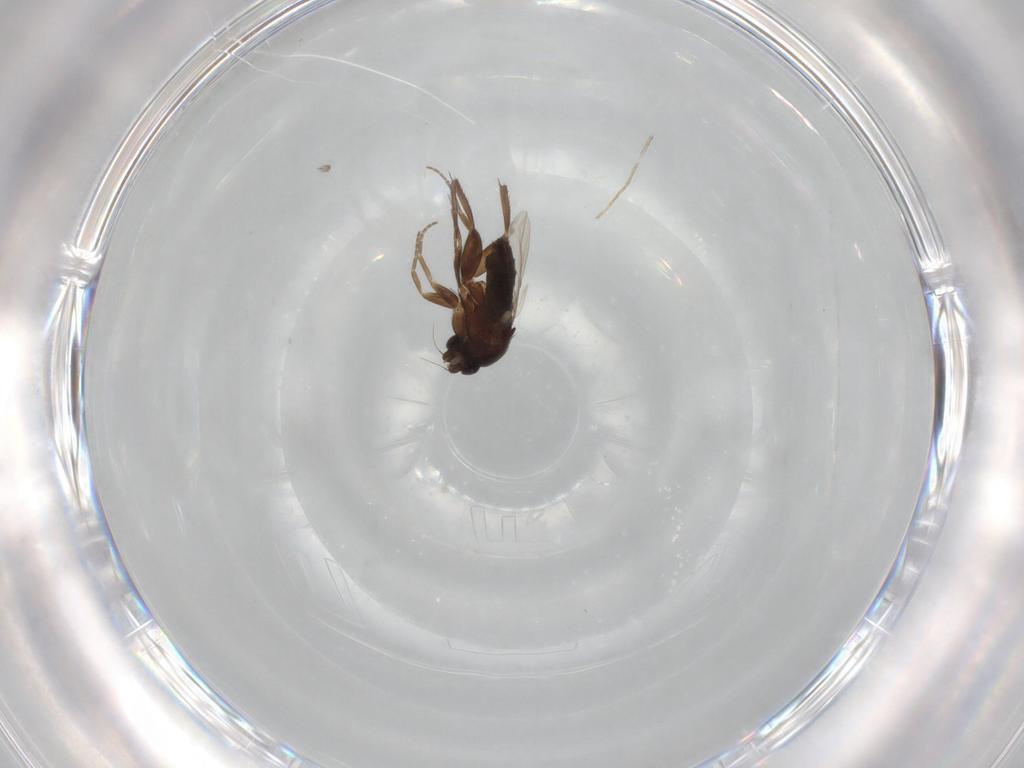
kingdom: Animalia
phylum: Arthropoda
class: Insecta
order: Diptera
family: Phoridae
